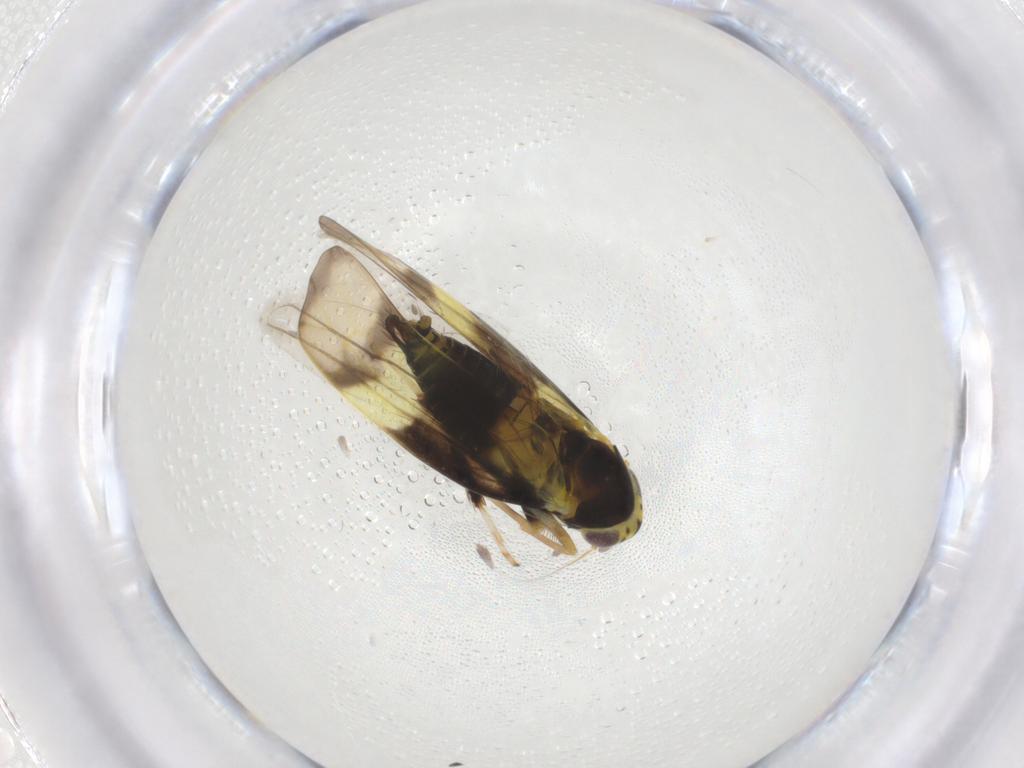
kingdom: Animalia
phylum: Arthropoda
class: Insecta
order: Hemiptera
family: Cicadellidae
